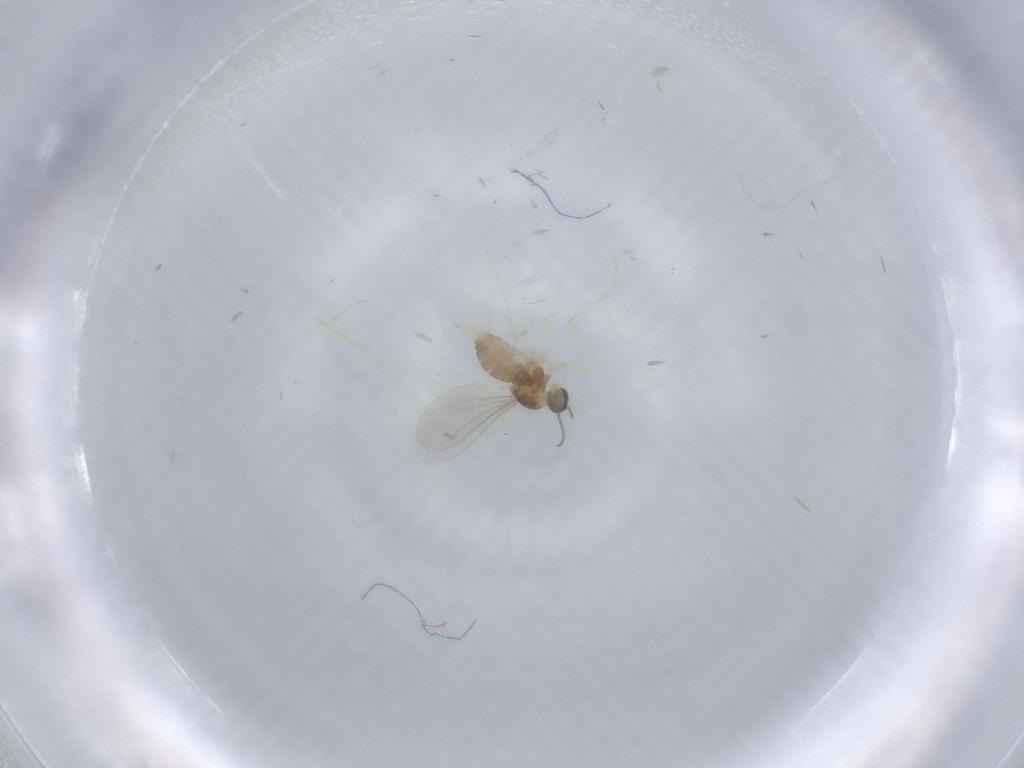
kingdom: Animalia
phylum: Arthropoda
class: Insecta
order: Diptera
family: Cecidomyiidae
